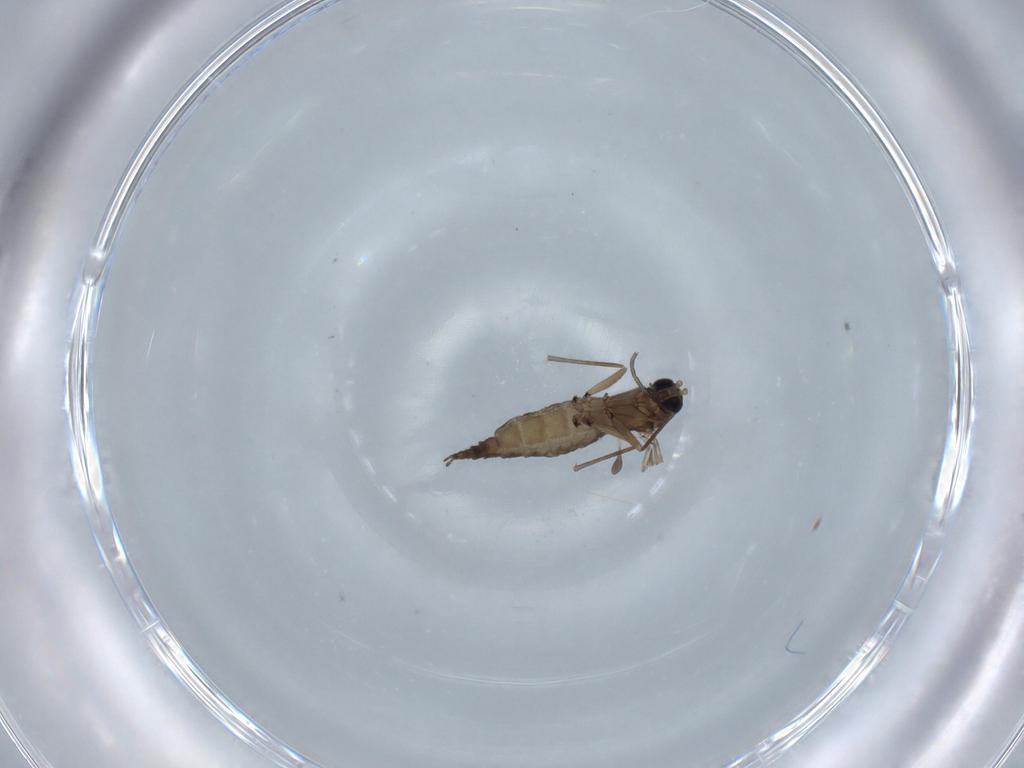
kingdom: Animalia
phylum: Arthropoda
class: Insecta
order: Diptera
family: Sciaridae
